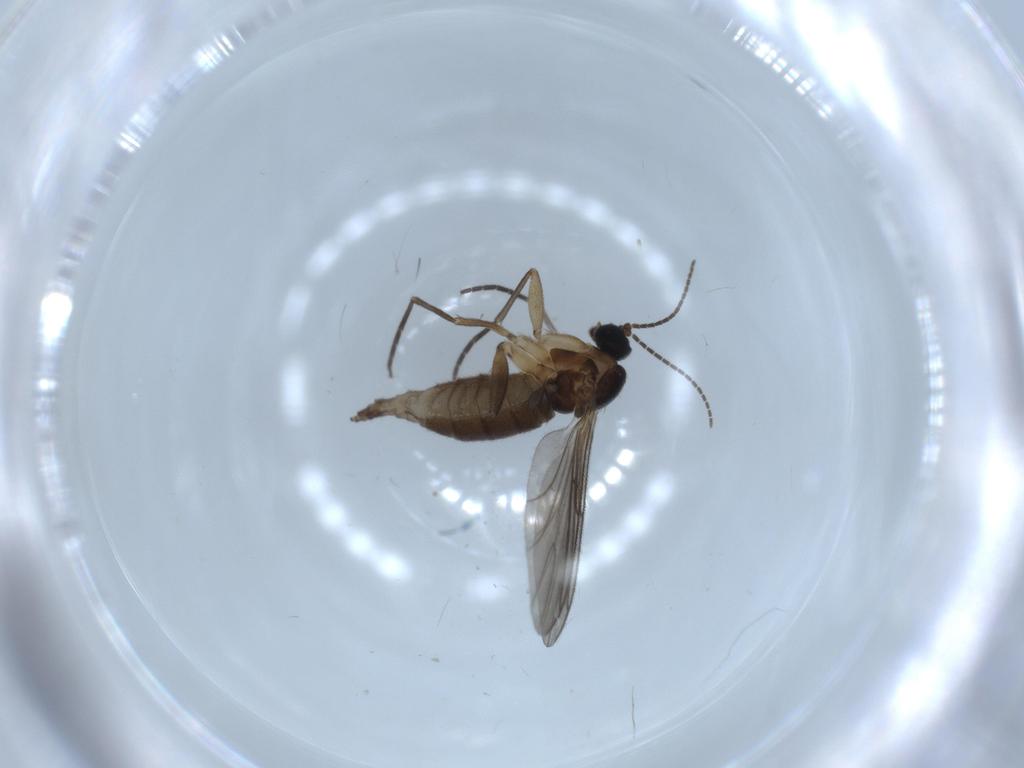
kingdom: Animalia
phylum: Arthropoda
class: Insecta
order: Diptera
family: Sciaridae
